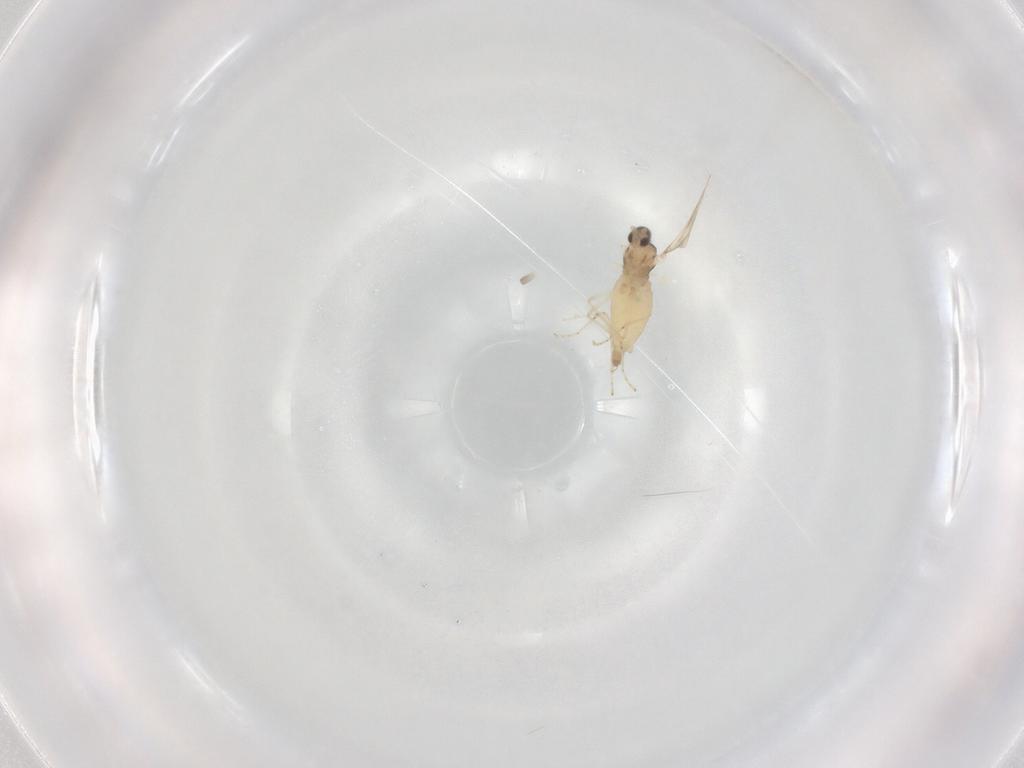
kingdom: Animalia
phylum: Arthropoda
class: Insecta
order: Diptera
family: Cecidomyiidae
